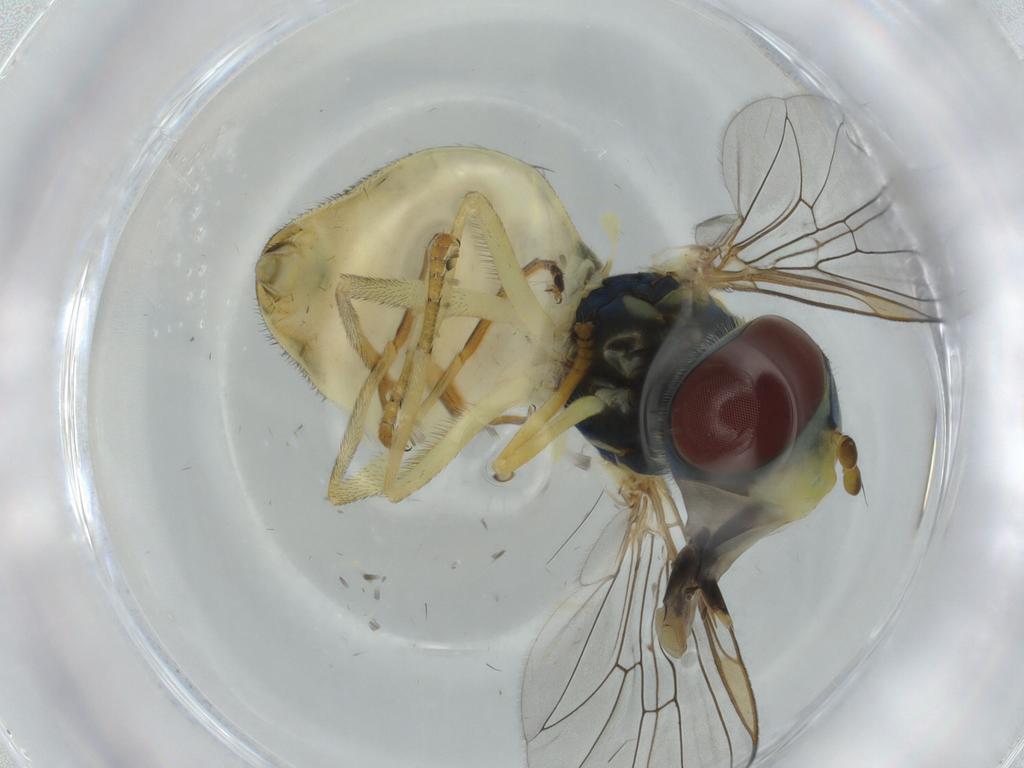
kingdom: Animalia
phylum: Arthropoda
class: Insecta
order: Diptera
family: Syrphidae
